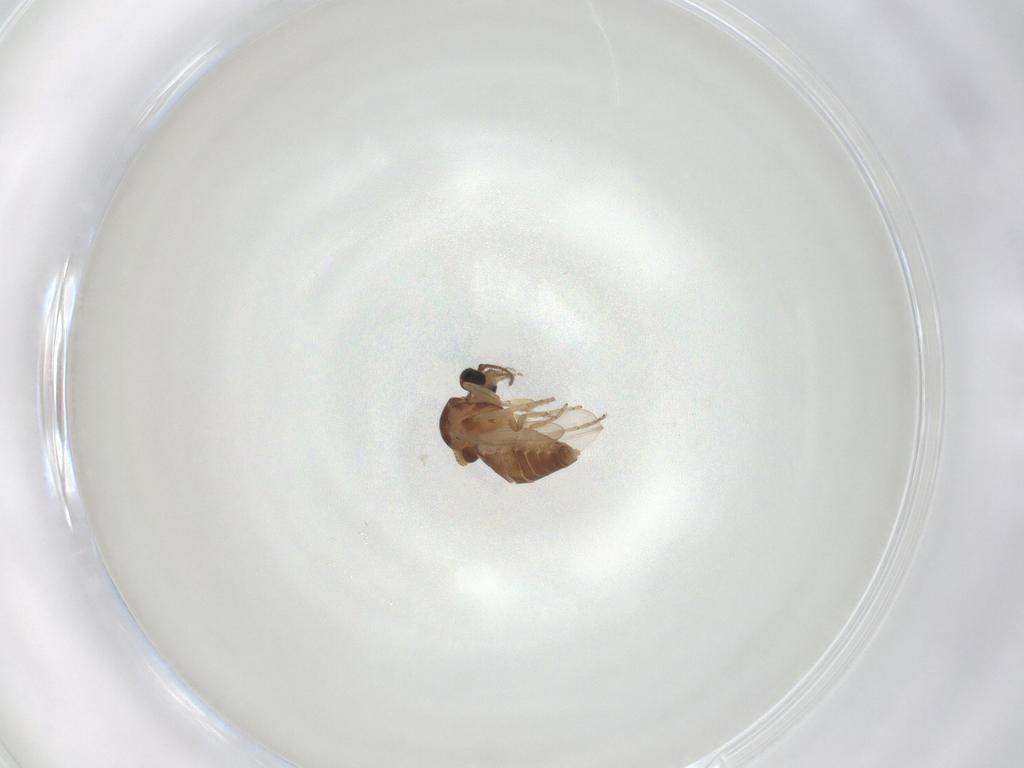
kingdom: Animalia
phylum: Arthropoda
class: Insecta
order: Diptera
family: Ceratopogonidae
